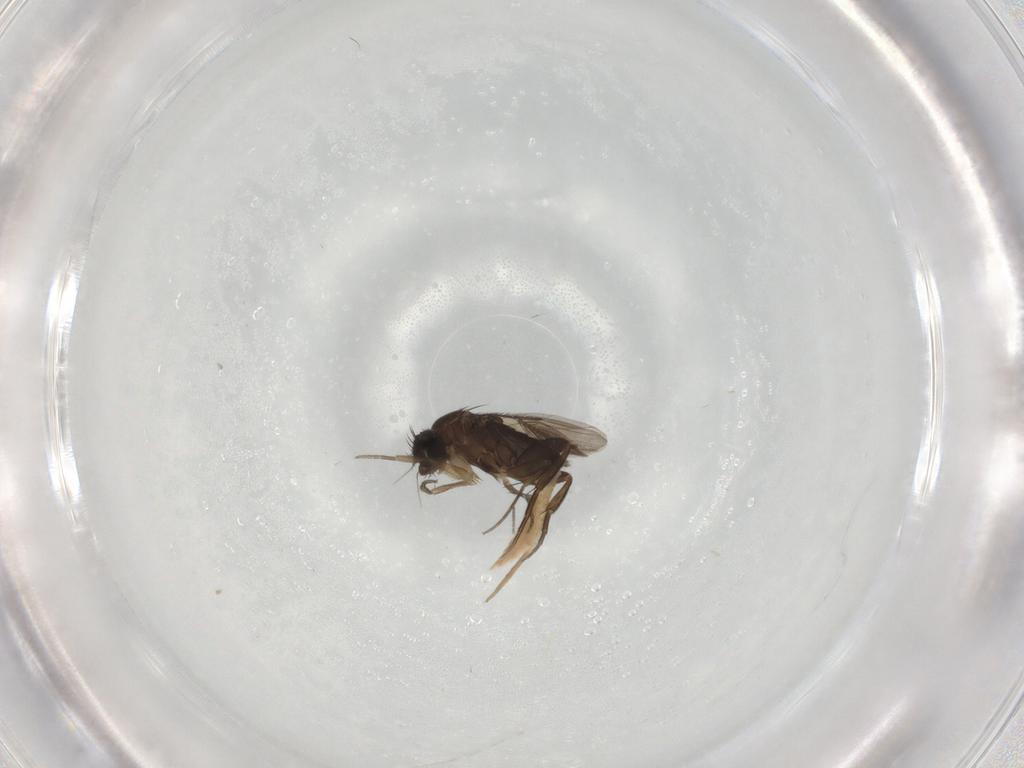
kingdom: Animalia
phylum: Arthropoda
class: Insecta
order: Diptera
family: Ceratopogonidae
